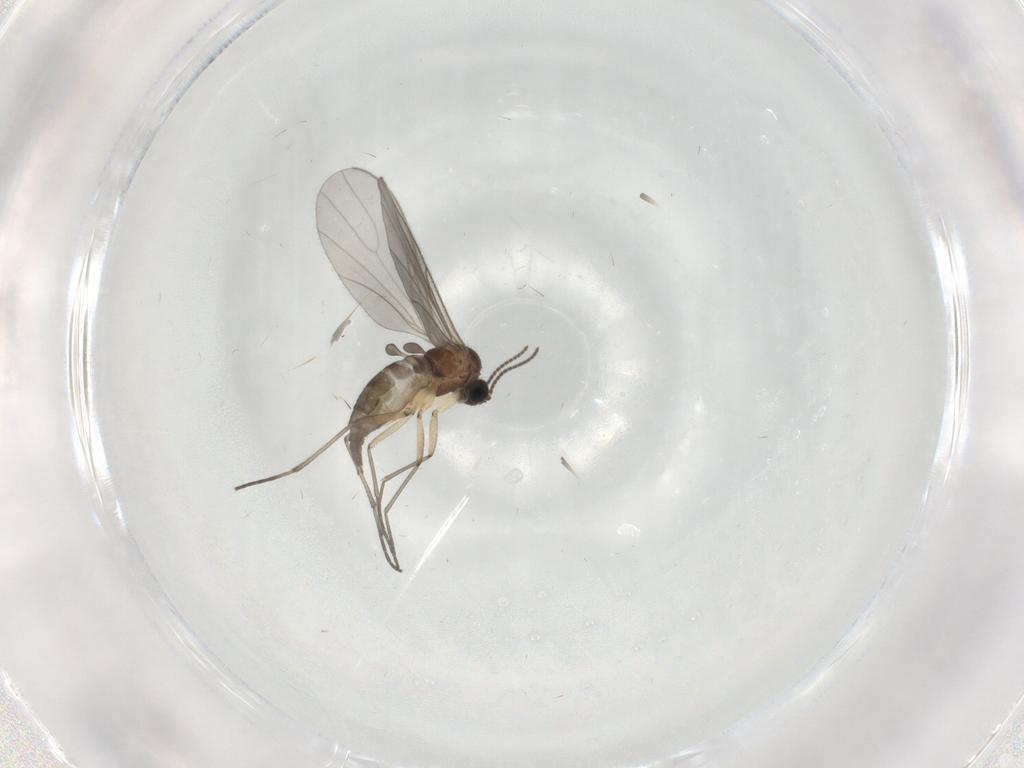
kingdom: Animalia
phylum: Arthropoda
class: Insecta
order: Diptera
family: Sciaridae
